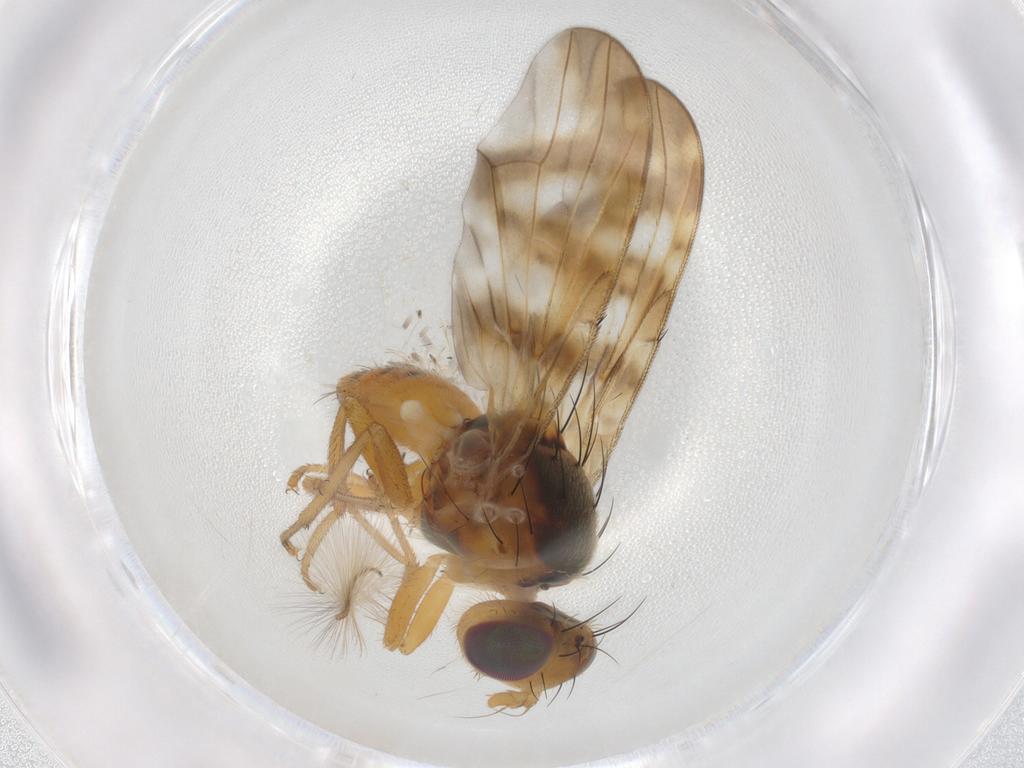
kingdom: Animalia
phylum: Arthropoda
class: Insecta
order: Diptera
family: Tephritidae
